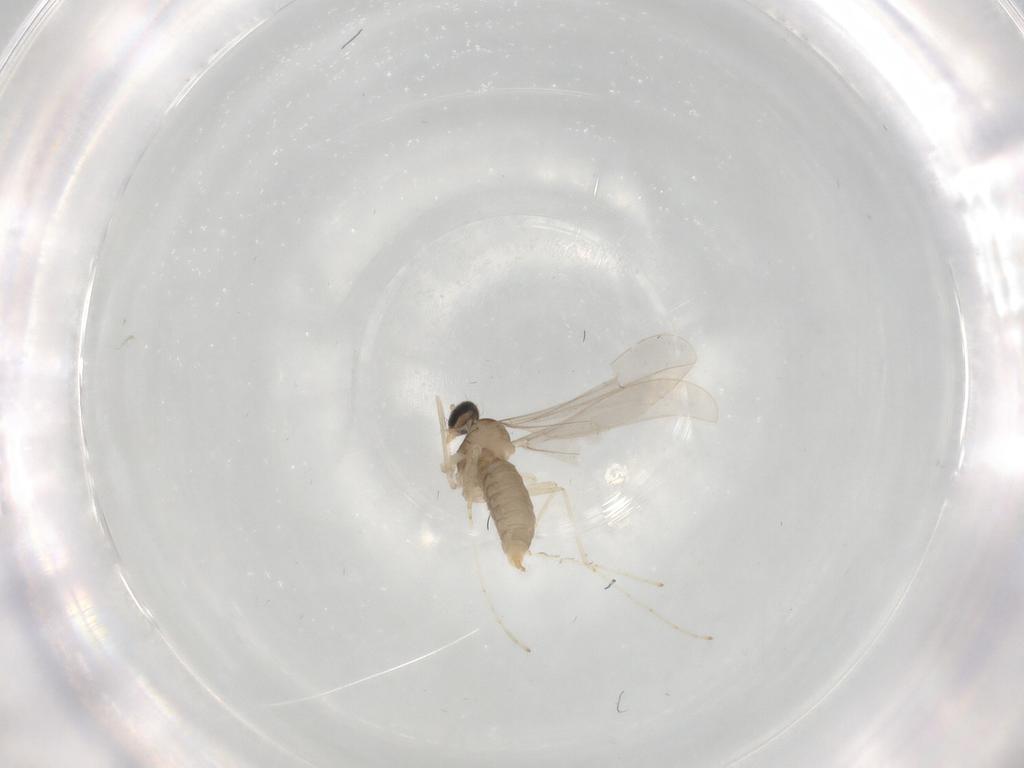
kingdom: Animalia
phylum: Arthropoda
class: Insecta
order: Diptera
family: Cecidomyiidae
